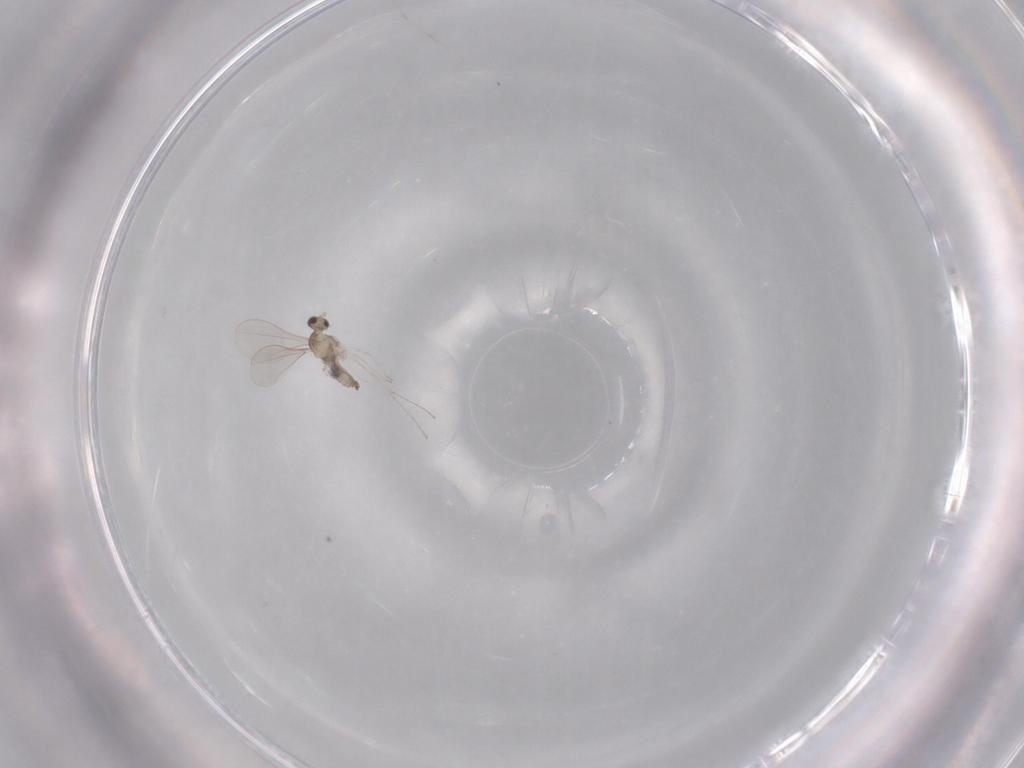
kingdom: Animalia
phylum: Arthropoda
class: Insecta
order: Diptera
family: Cecidomyiidae
